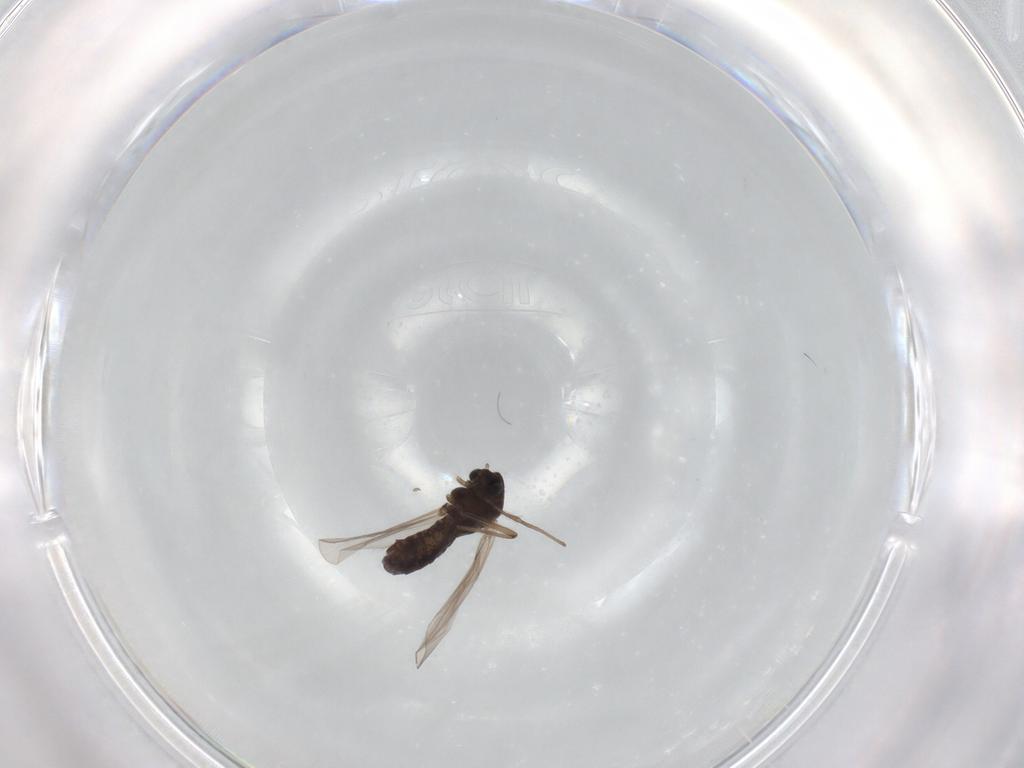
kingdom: Animalia
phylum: Arthropoda
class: Insecta
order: Diptera
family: Chironomidae
